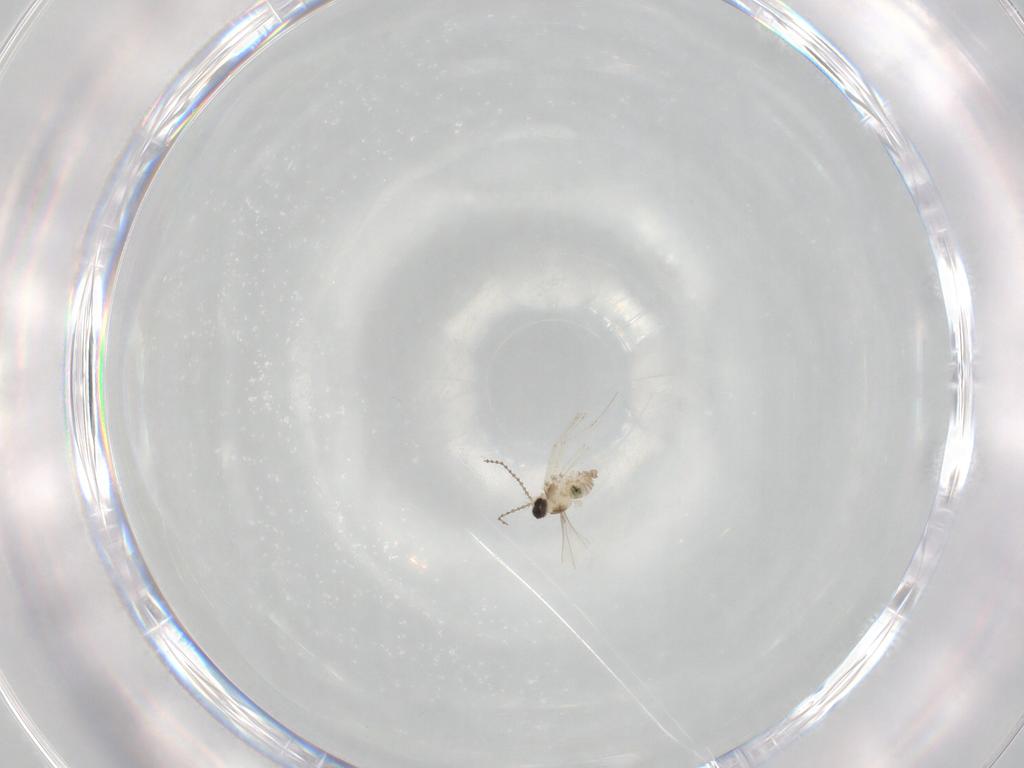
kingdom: Animalia
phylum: Arthropoda
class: Insecta
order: Diptera
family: Cecidomyiidae
